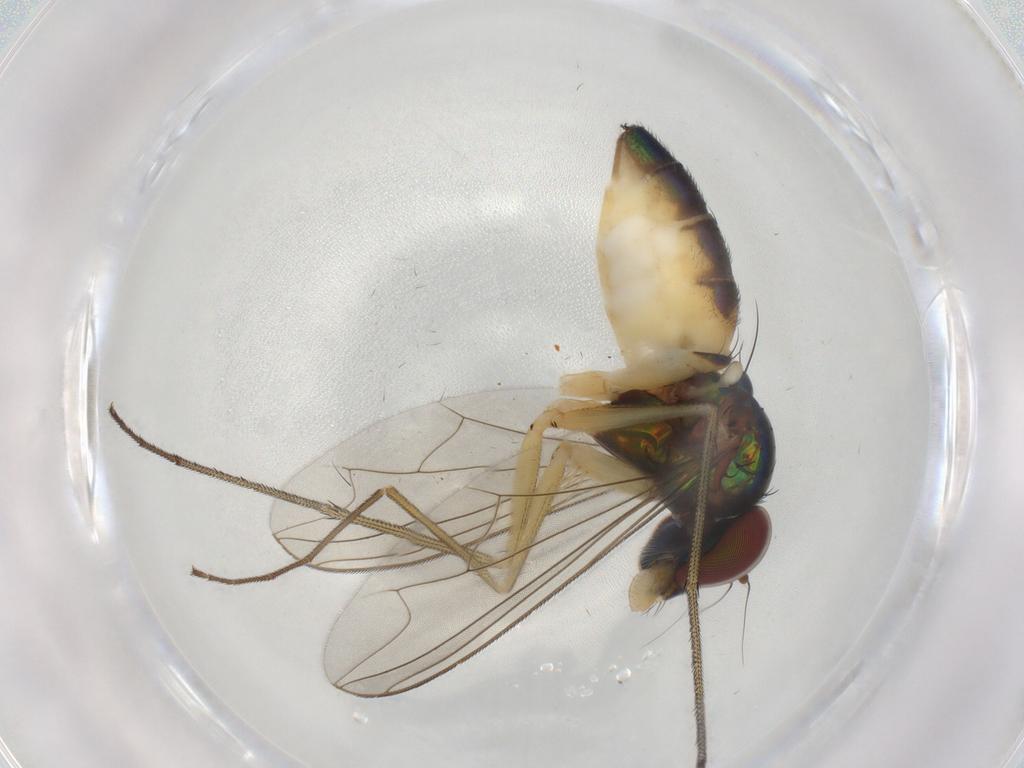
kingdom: Animalia
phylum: Arthropoda
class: Insecta
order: Diptera
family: Dolichopodidae
